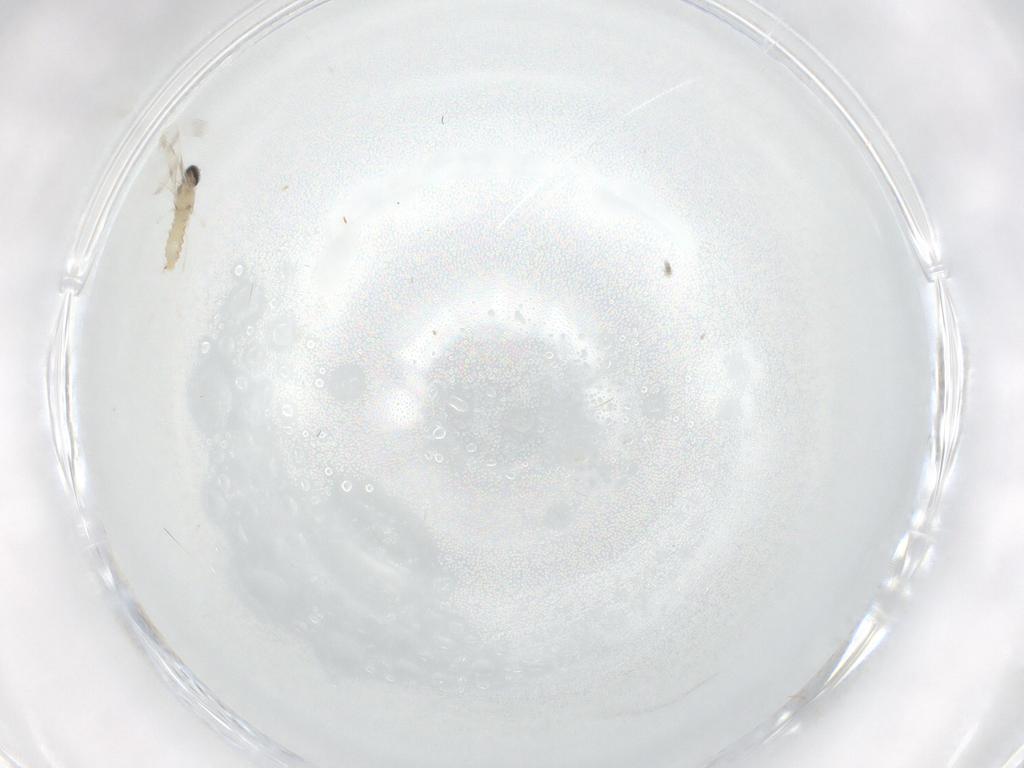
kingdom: Animalia
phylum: Arthropoda
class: Insecta
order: Diptera
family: Cecidomyiidae
